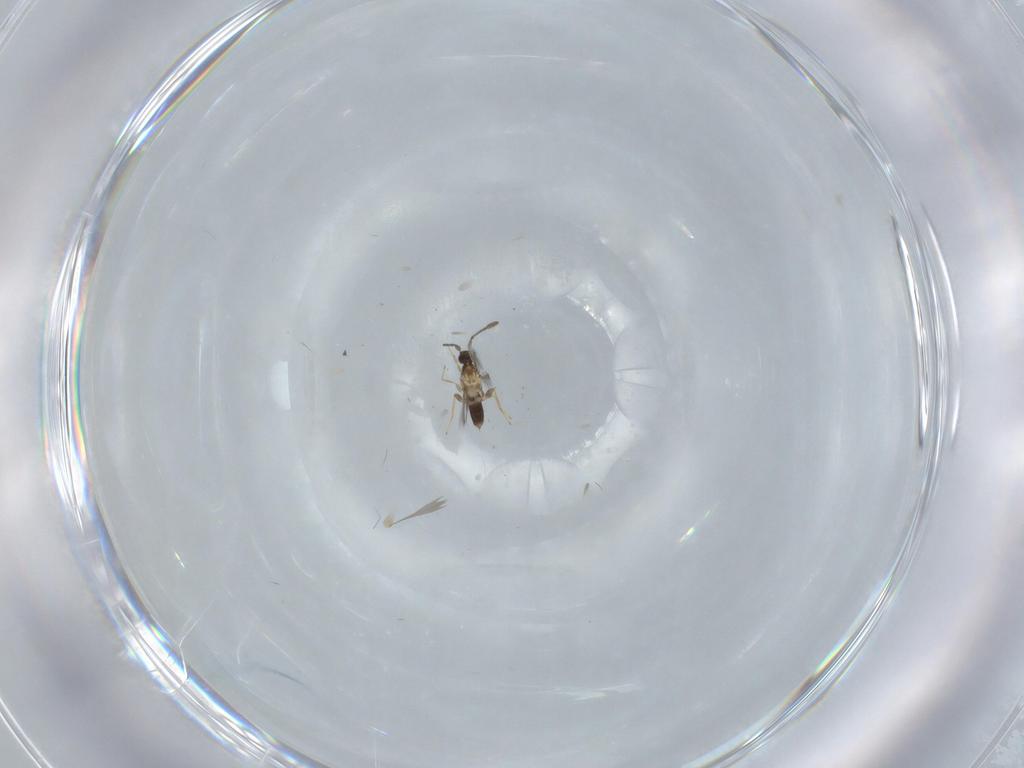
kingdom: Animalia
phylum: Arthropoda
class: Insecta
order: Hymenoptera
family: Mymaridae
